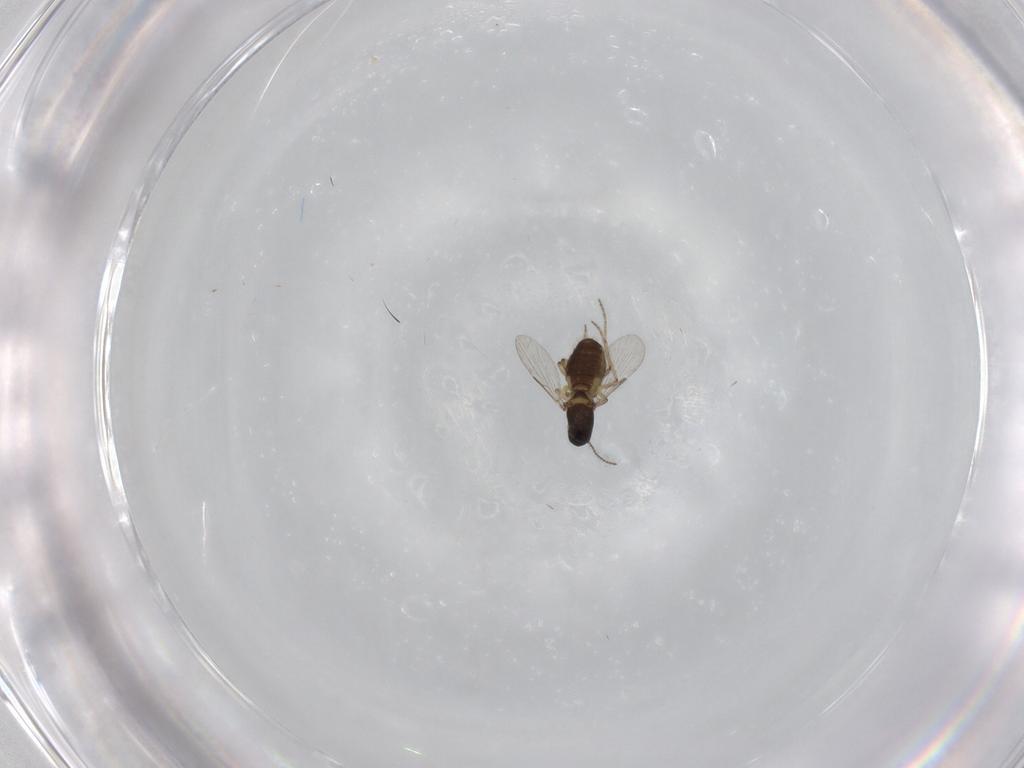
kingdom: Animalia
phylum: Arthropoda
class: Insecta
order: Diptera
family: Ceratopogonidae
